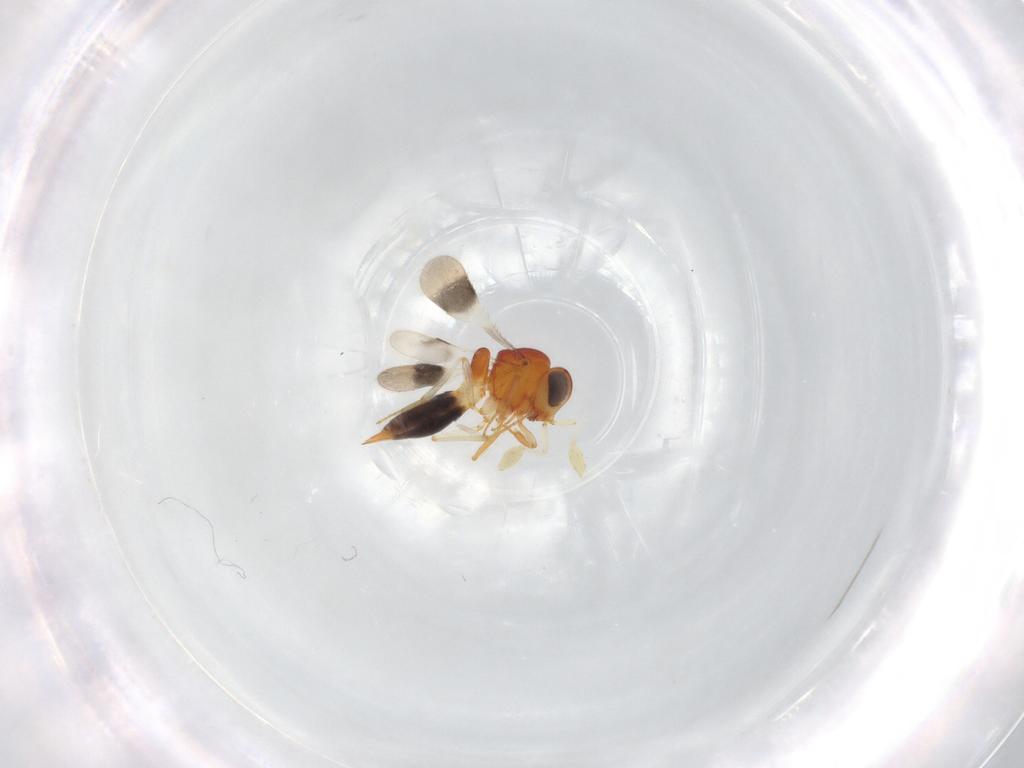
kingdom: Animalia
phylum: Arthropoda
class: Insecta
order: Hymenoptera
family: Scelionidae
